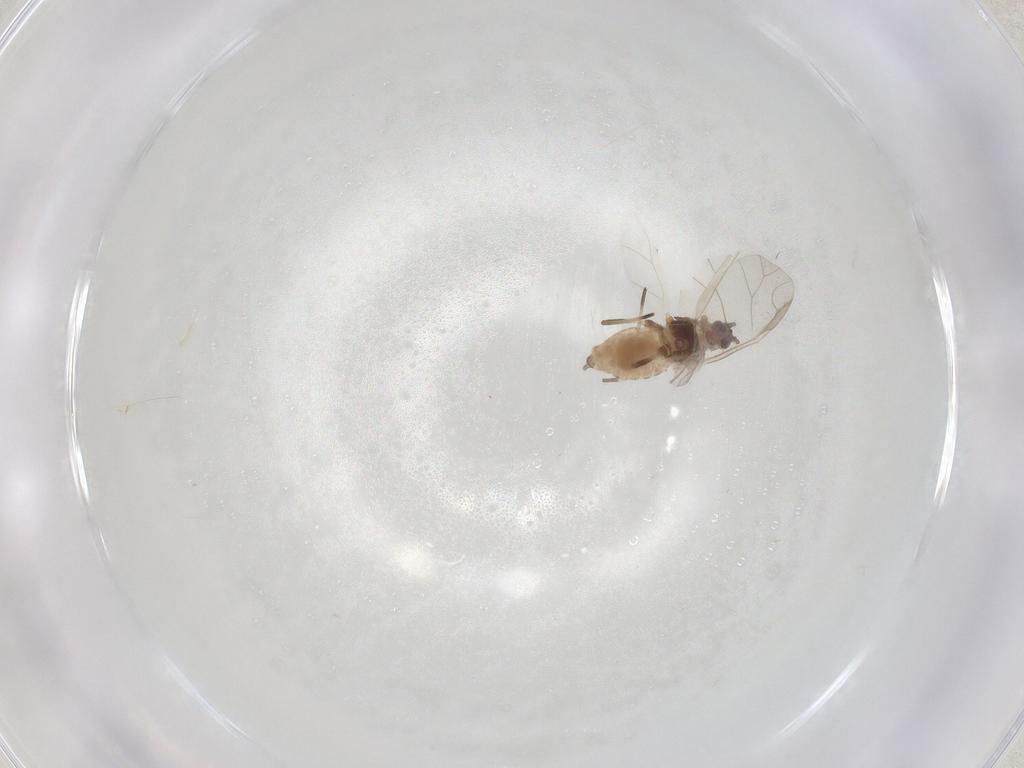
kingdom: Animalia
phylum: Arthropoda
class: Insecta
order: Hemiptera
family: Aphididae
